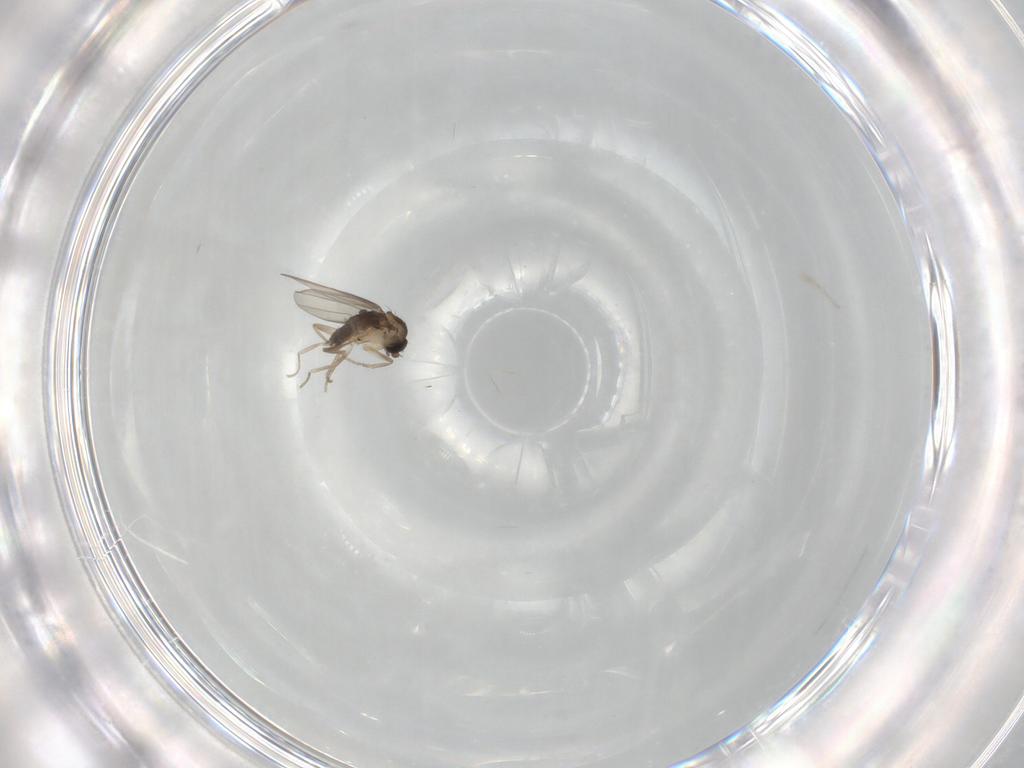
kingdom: Animalia
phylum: Arthropoda
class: Insecta
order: Diptera
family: Phoridae
